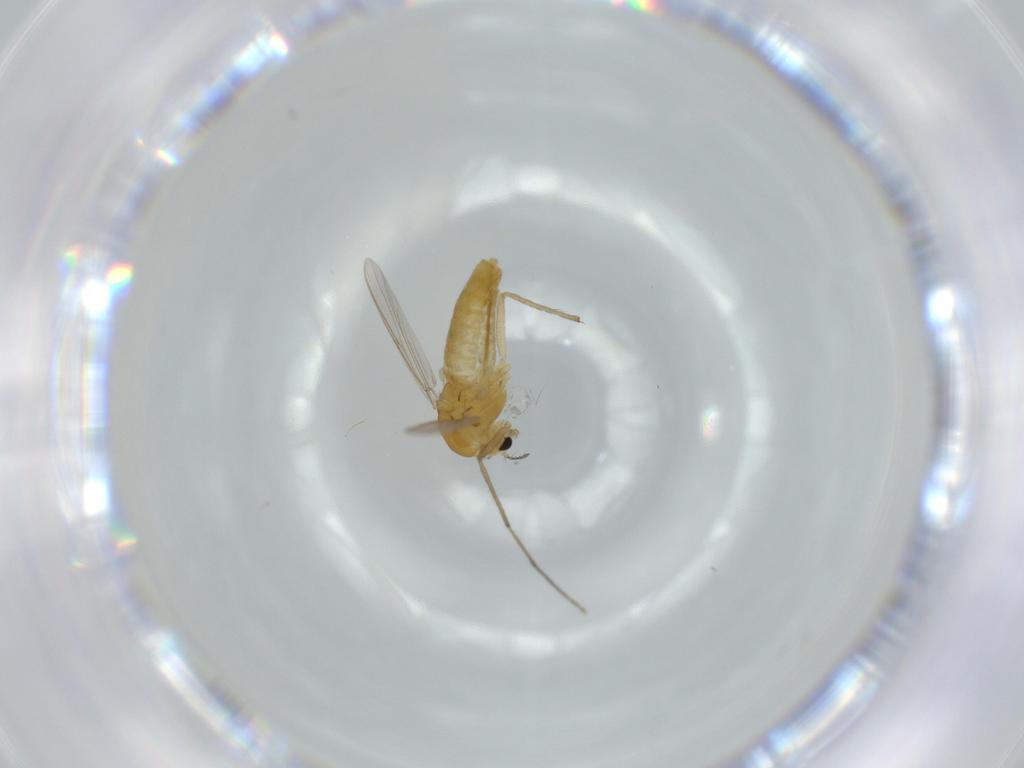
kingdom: Animalia
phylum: Arthropoda
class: Insecta
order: Diptera
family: Chironomidae
